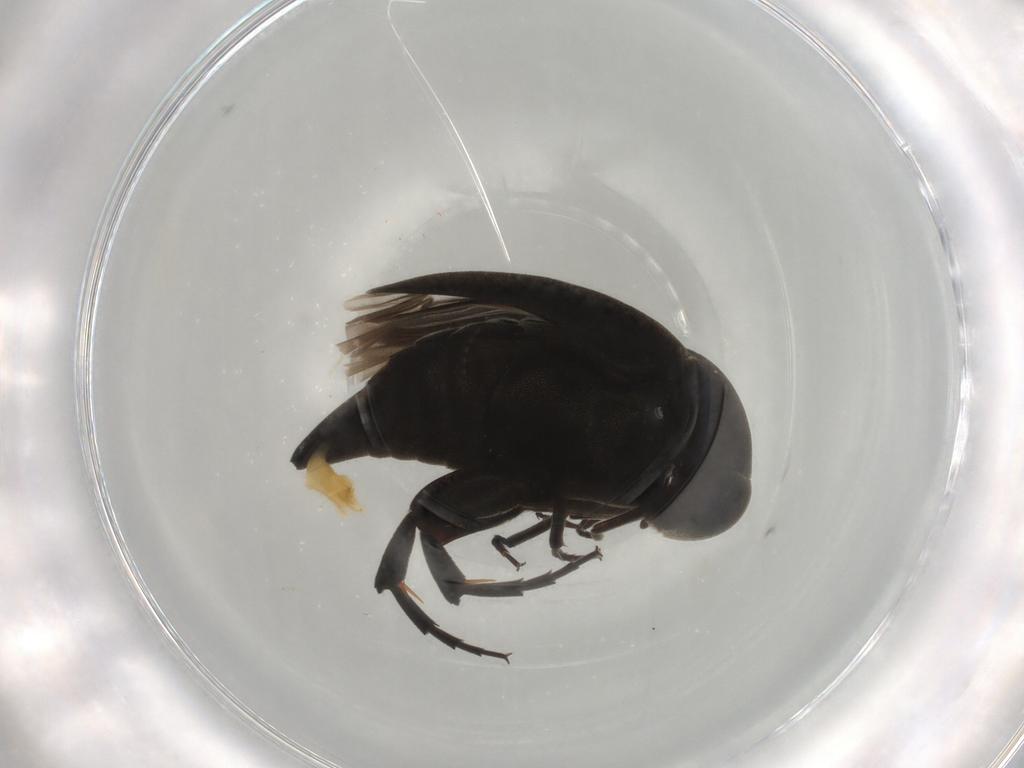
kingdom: Animalia
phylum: Arthropoda
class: Insecta
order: Coleoptera
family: Mordellidae
